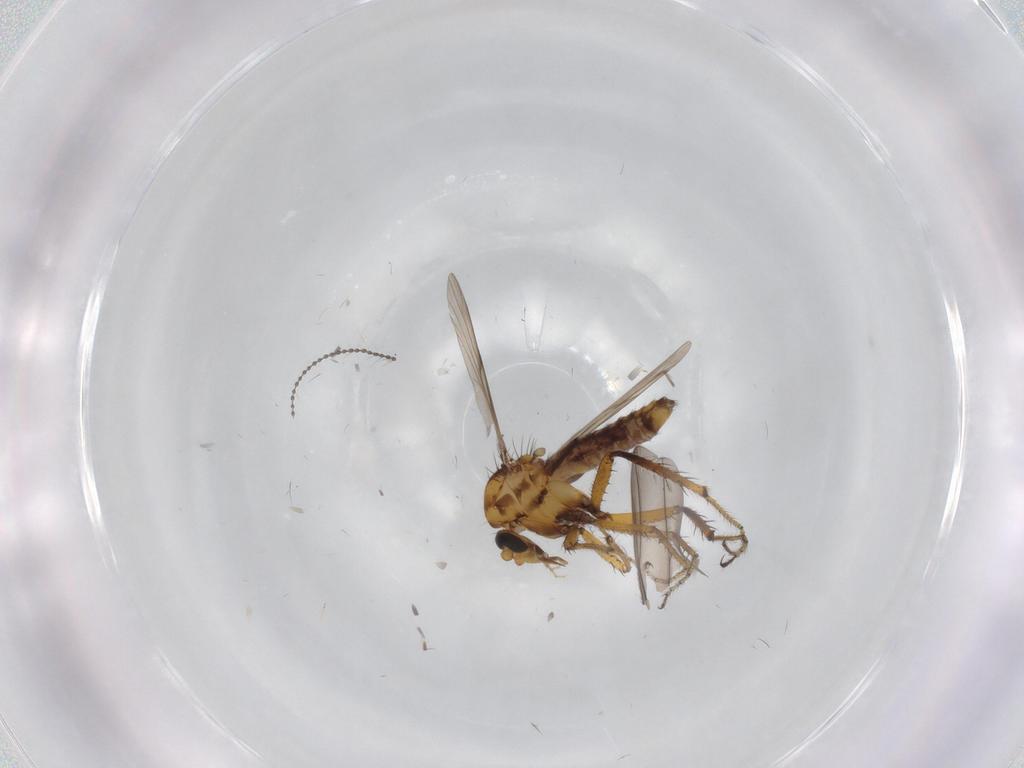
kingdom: Animalia
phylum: Arthropoda
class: Insecta
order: Diptera
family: Ceratopogonidae
